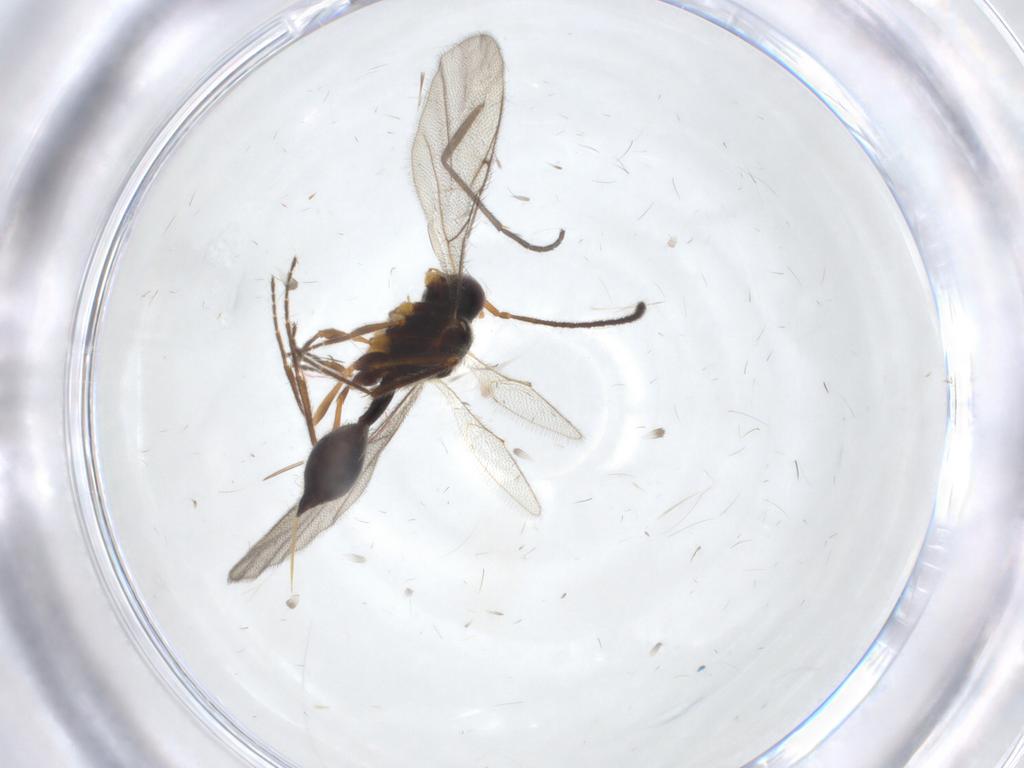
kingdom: Animalia
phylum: Arthropoda
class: Insecta
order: Hymenoptera
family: Diapriidae
